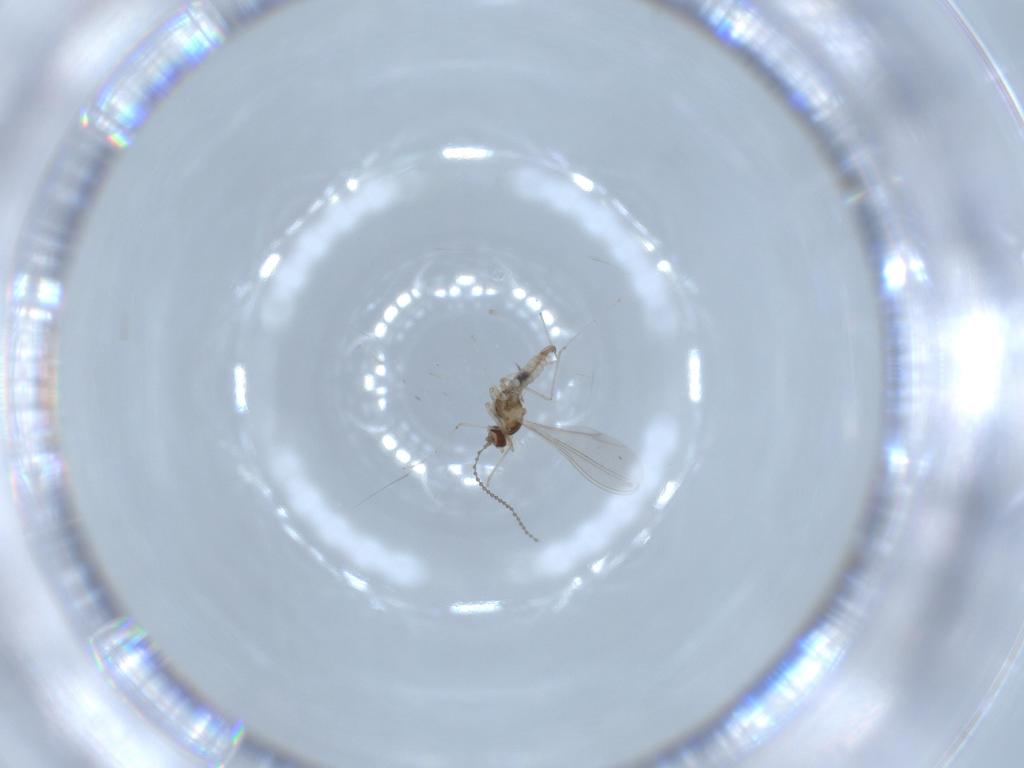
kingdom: Animalia
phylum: Arthropoda
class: Insecta
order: Diptera
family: Cecidomyiidae
